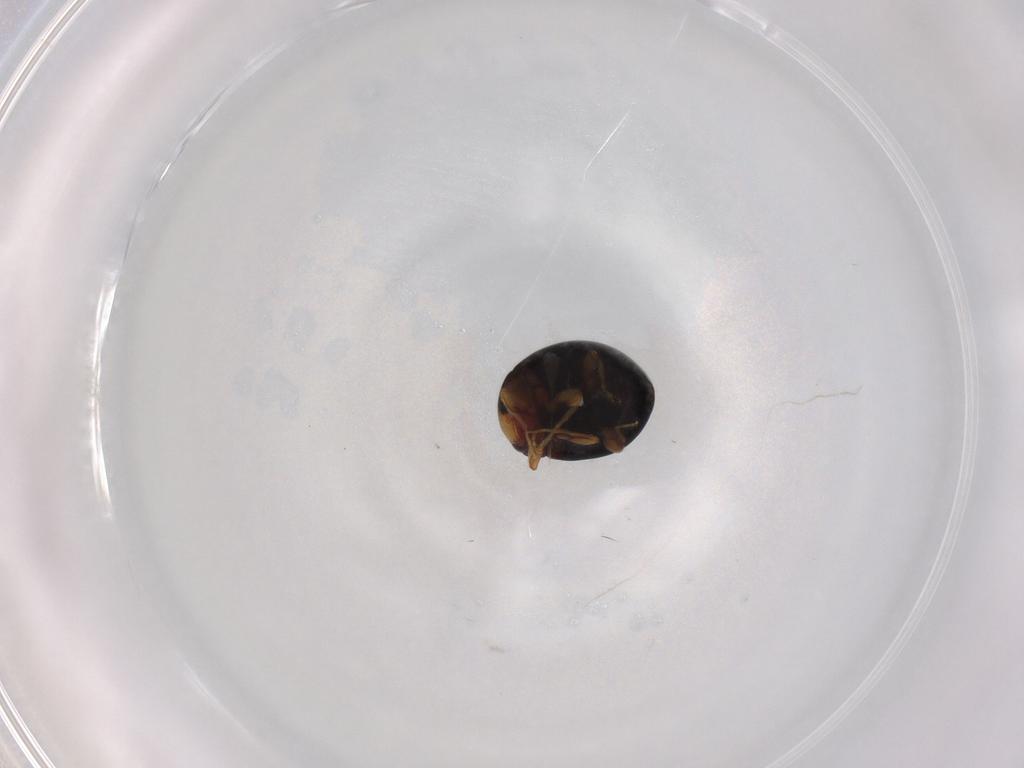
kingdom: Animalia
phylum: Arthropoda
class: Insecta
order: Coleoptera
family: Coccinellidae
